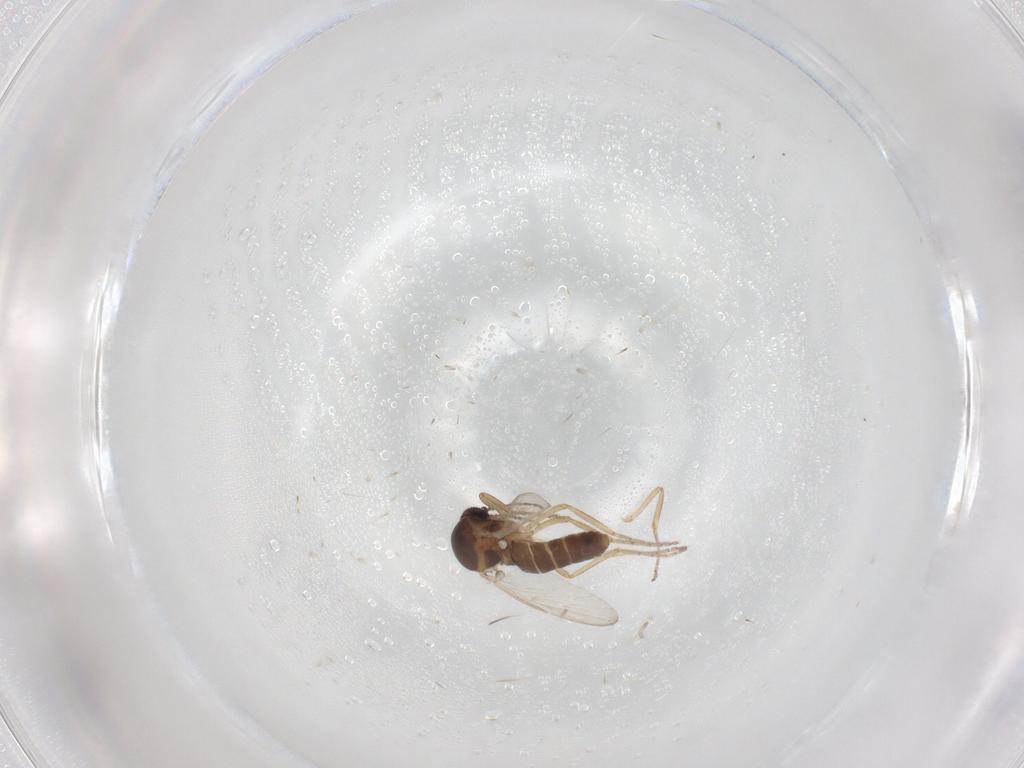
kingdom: Animalia
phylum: Arthropoda
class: Insecta
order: Diptera
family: Ceratopogonidae
